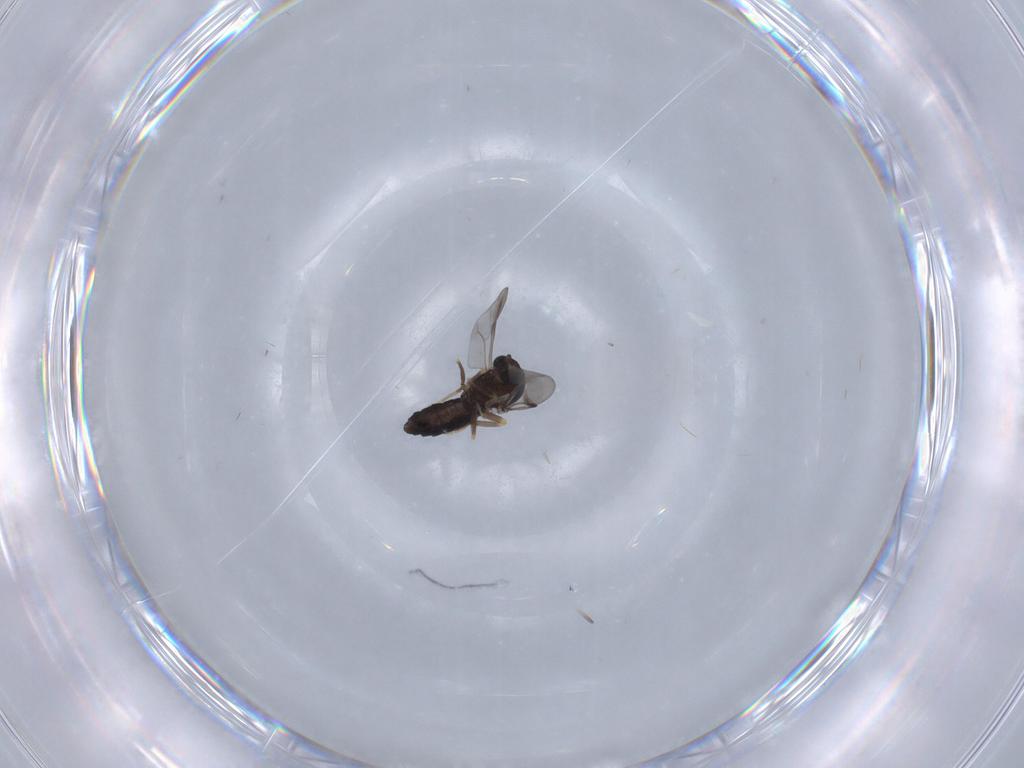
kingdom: Animalia
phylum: Arthropoda
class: Insecta
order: Diptera
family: Ceratopogonidae
